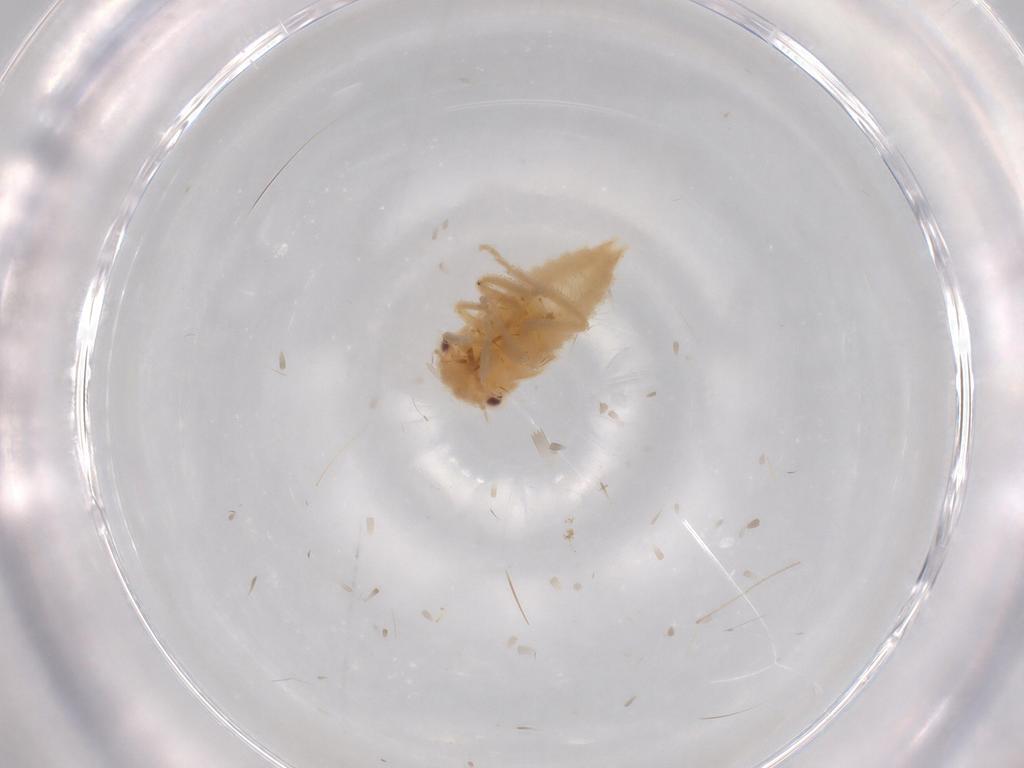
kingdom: Animalia
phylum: Arthropoda
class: Insecta
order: Hemiptera
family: Cicadellidae
